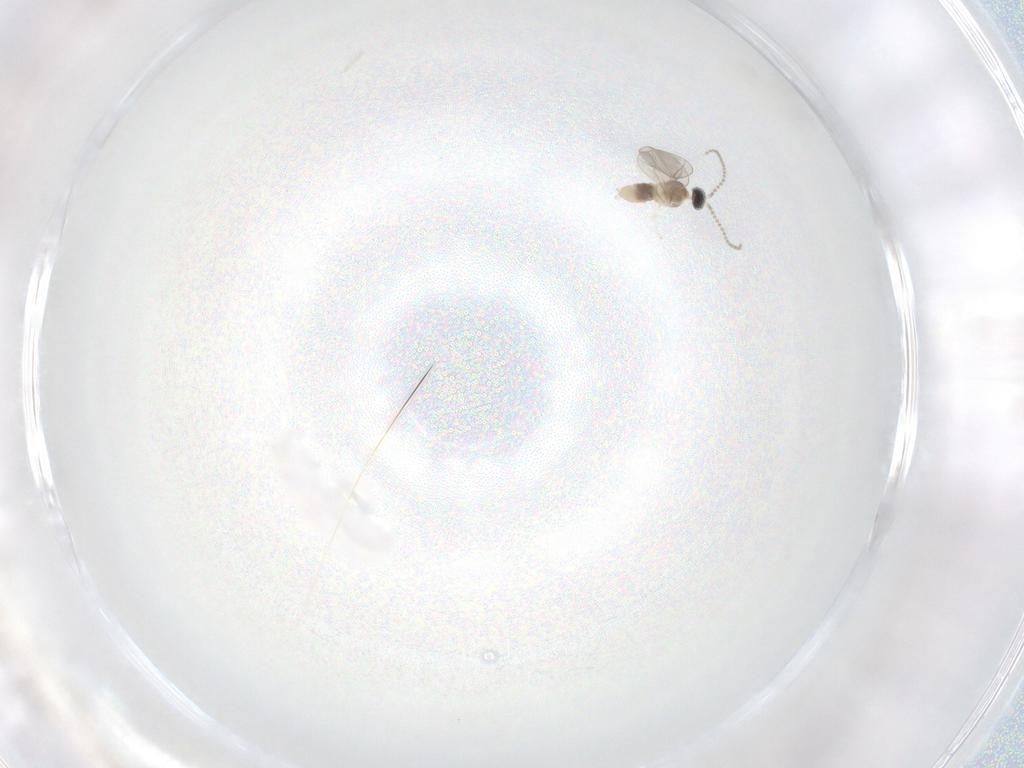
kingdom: Animalia
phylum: Arthropoda
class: Insecta
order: Diptera
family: Cecidomyiidae
